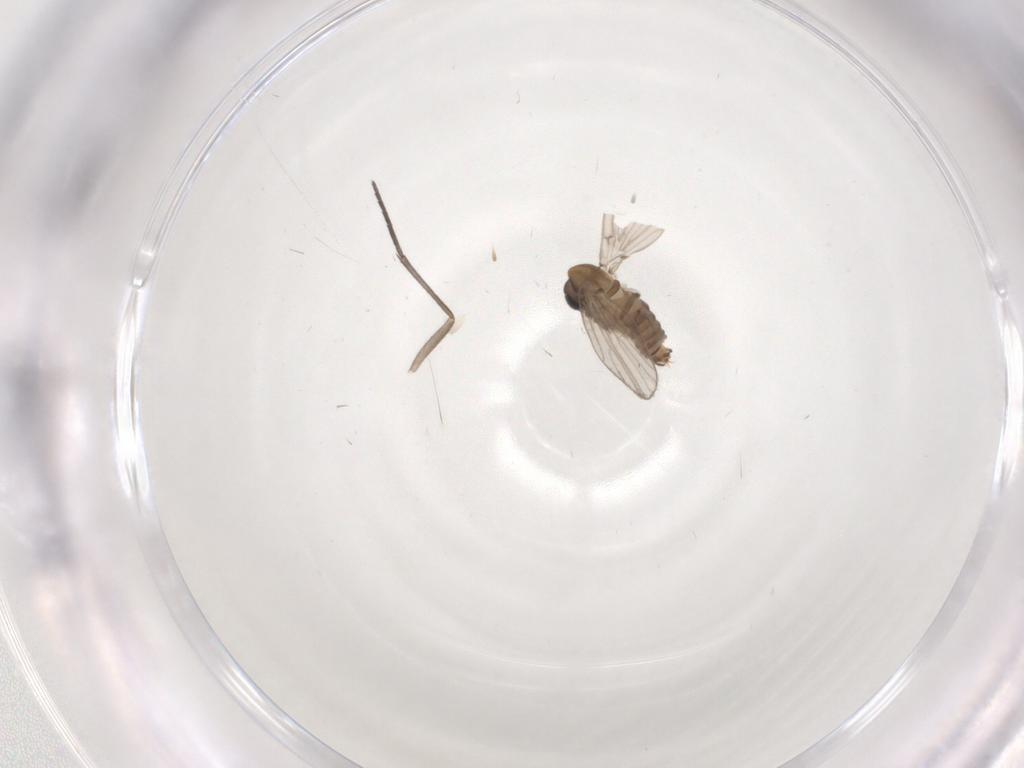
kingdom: Animalia
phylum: Arthropoda
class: Insecta
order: Diptera
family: Sciaridae
